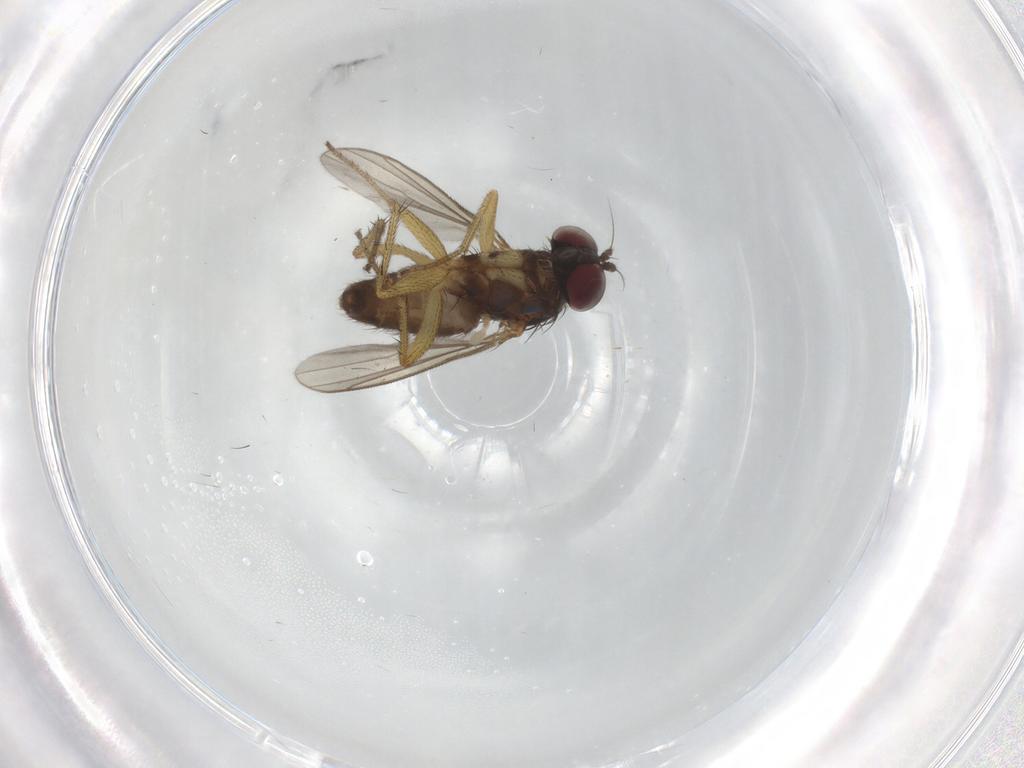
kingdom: Animalia
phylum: Arthropoda
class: Insecta
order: Diptera
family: Dolichopodidae
